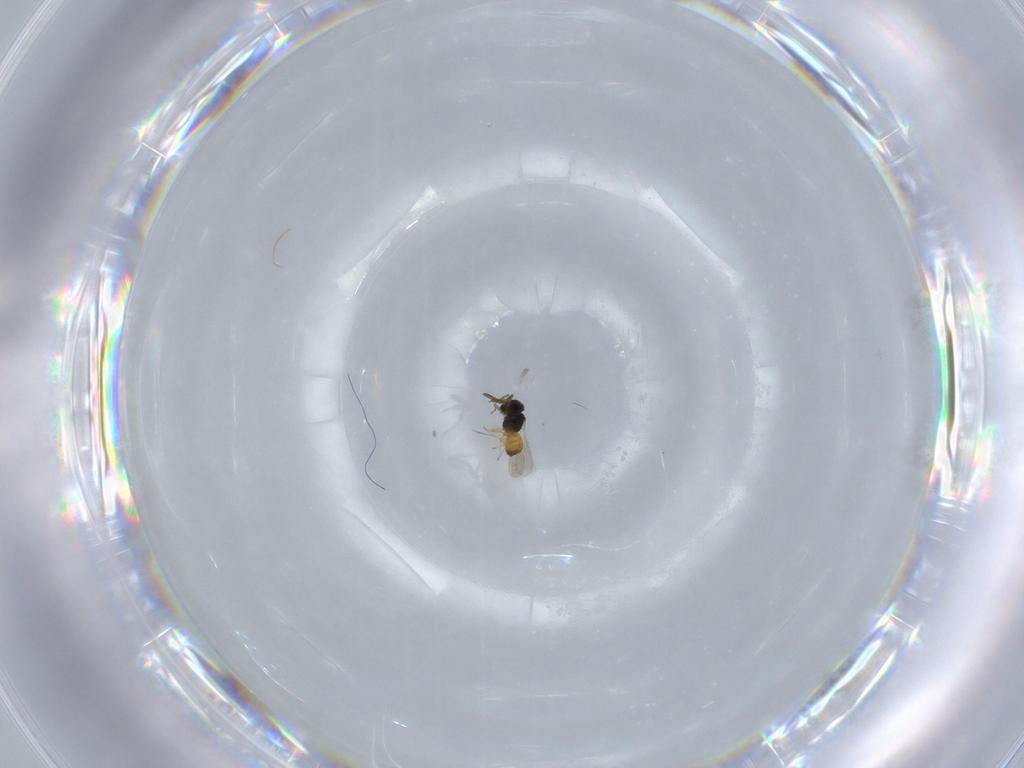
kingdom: Animalia
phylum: Arthropoda
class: Insecta
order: Hymenoptera
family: Scelionidae
